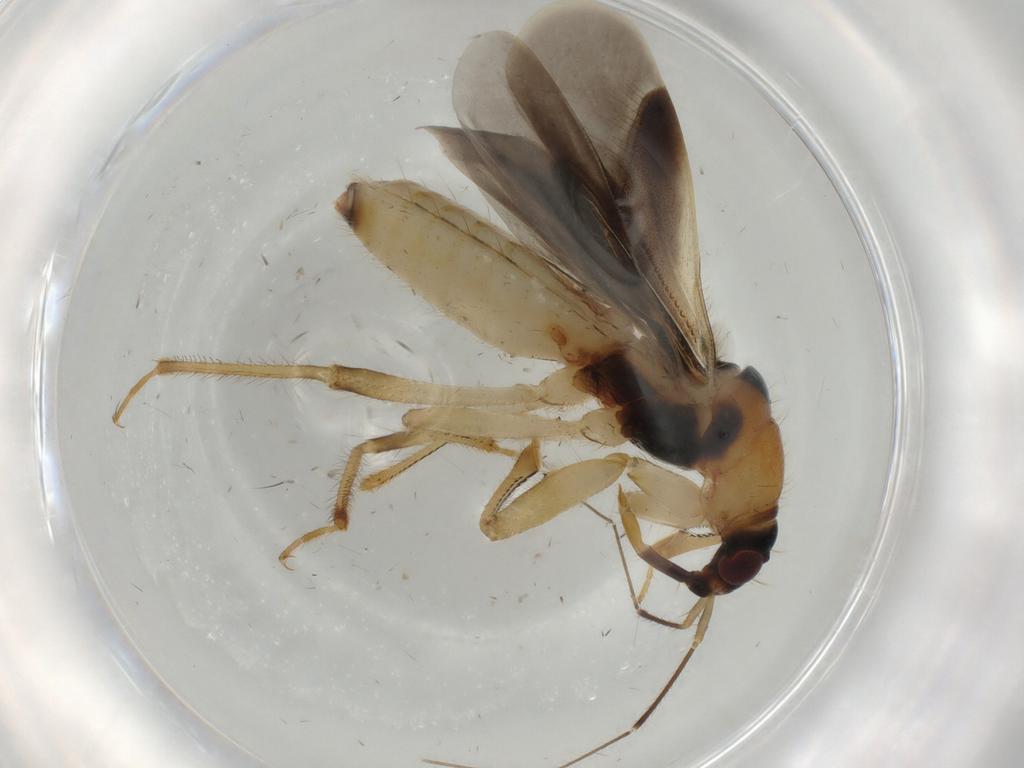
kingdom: Animalia
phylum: Arthropoda
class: Insecta
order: Hemiptera
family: Nabidae
